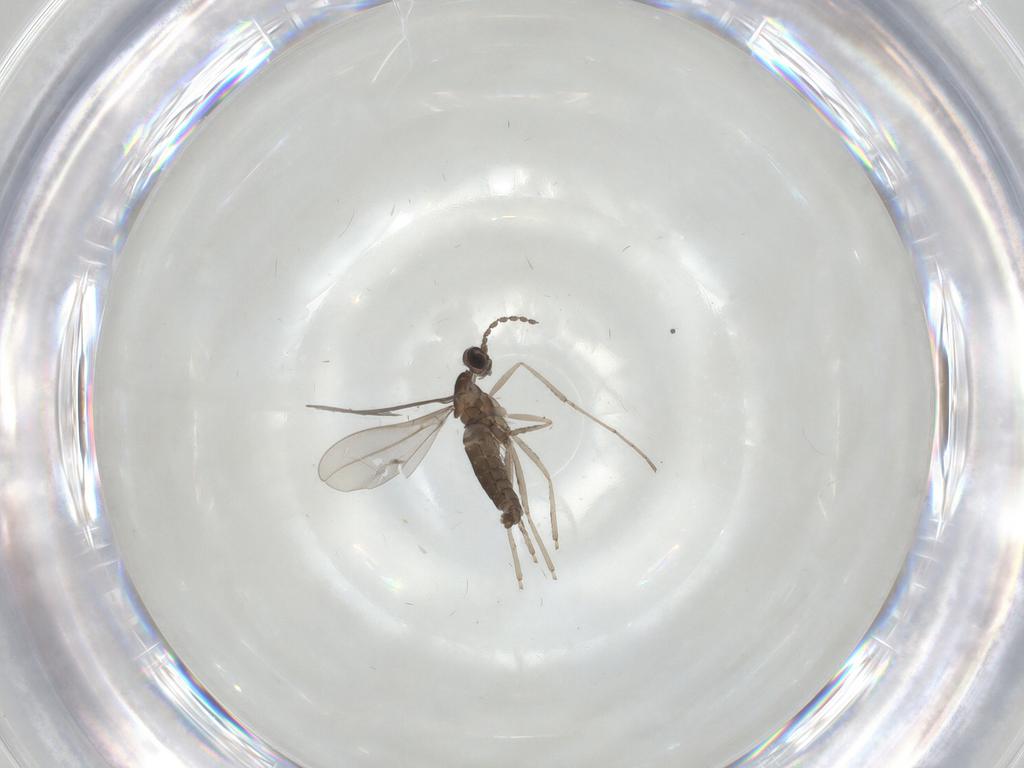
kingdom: Animalia
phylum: Arthropoda
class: Insecta
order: Diptera
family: Cecidomyiidae
